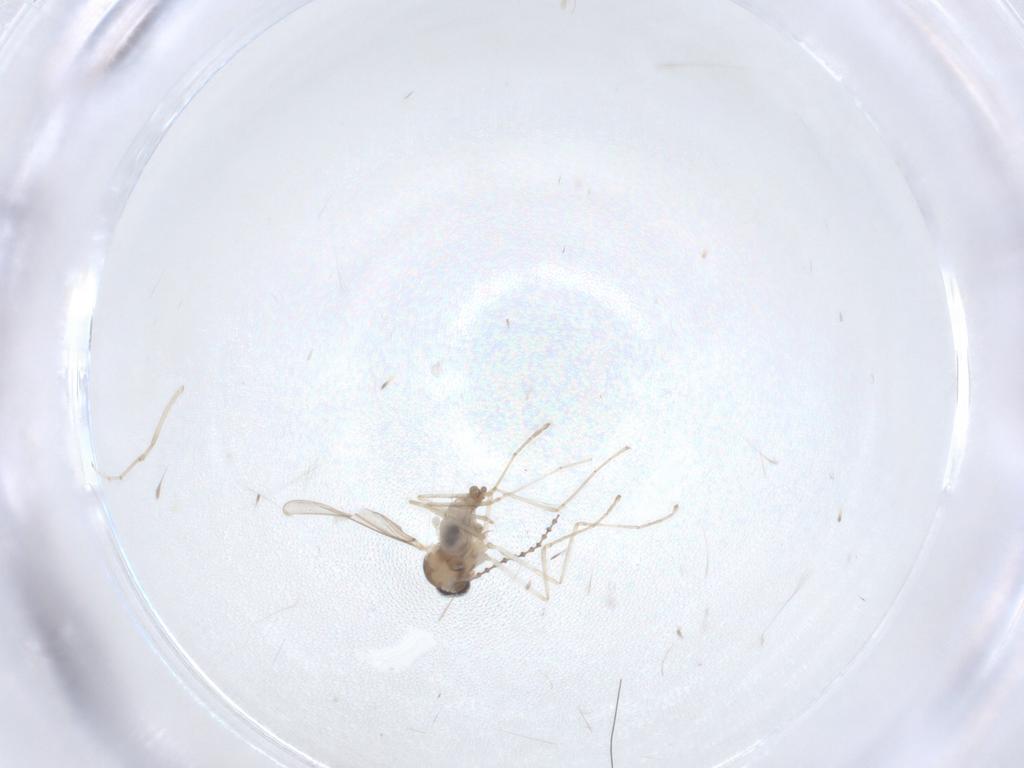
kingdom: Animalia
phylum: Arthropoda
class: Insecta
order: Diptera
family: Cecidomyiidae
